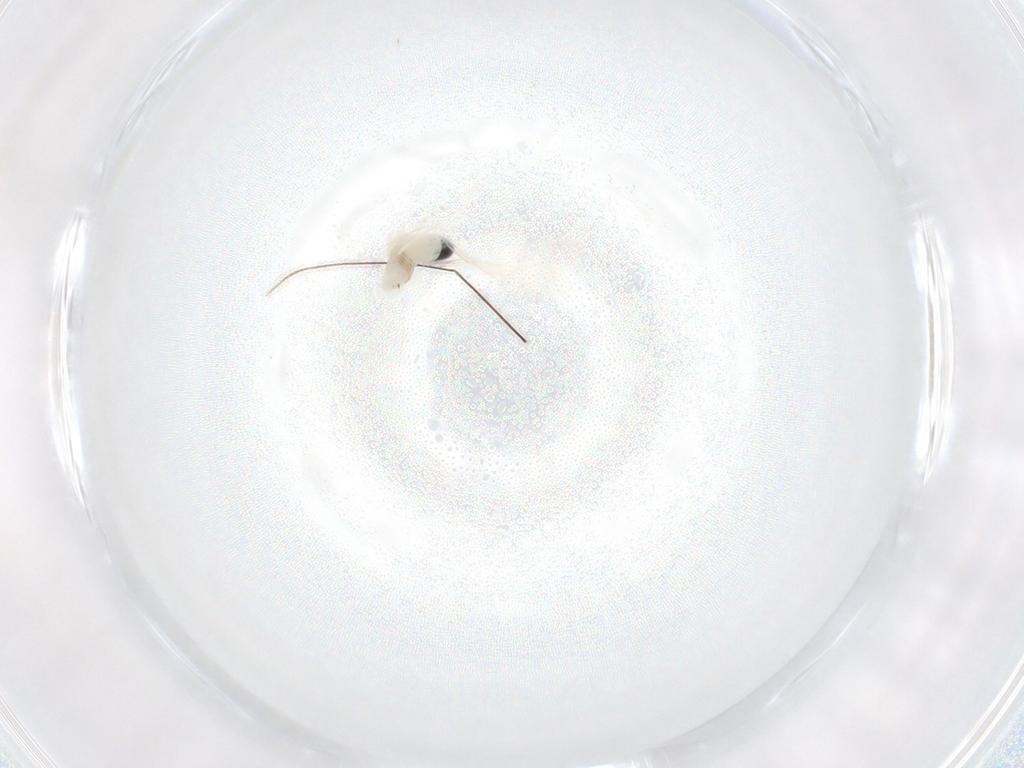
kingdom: Animalia
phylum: Arthropoda
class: Insecta
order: Diptera
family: Cecidomyiidae
